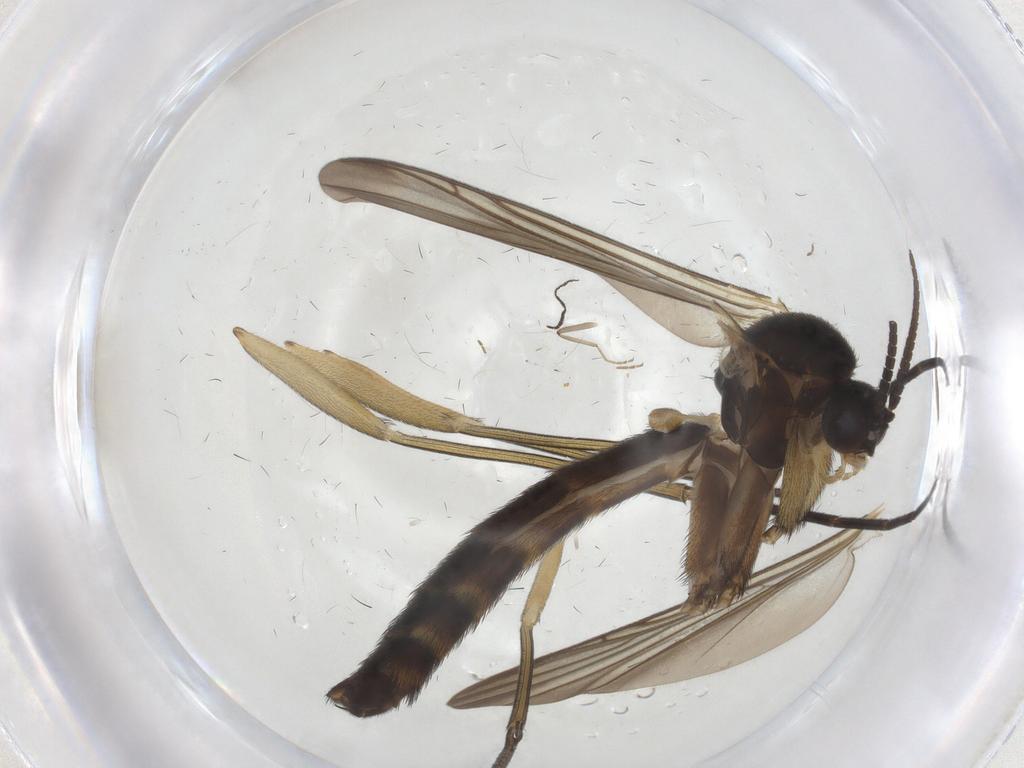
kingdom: Animalia
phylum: Arthropoda
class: Insecta
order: Diptera
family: Keroplatidae
